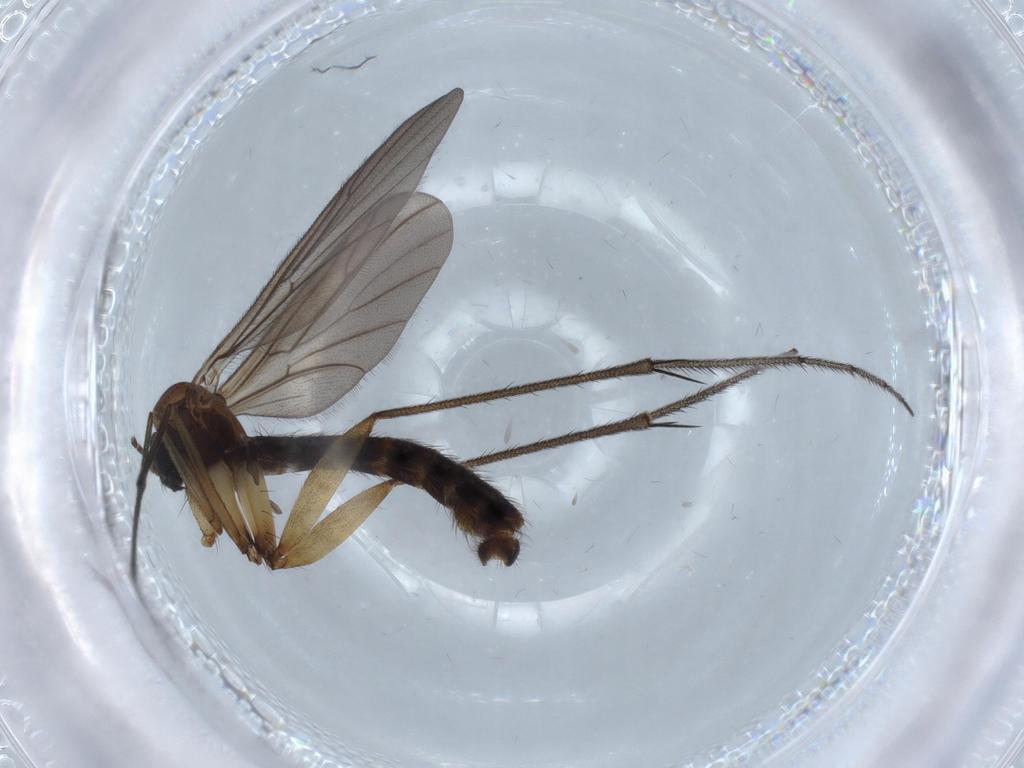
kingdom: Animalia
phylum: Arthropoda
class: Insecta
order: Diptera
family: Ditomyiidae
